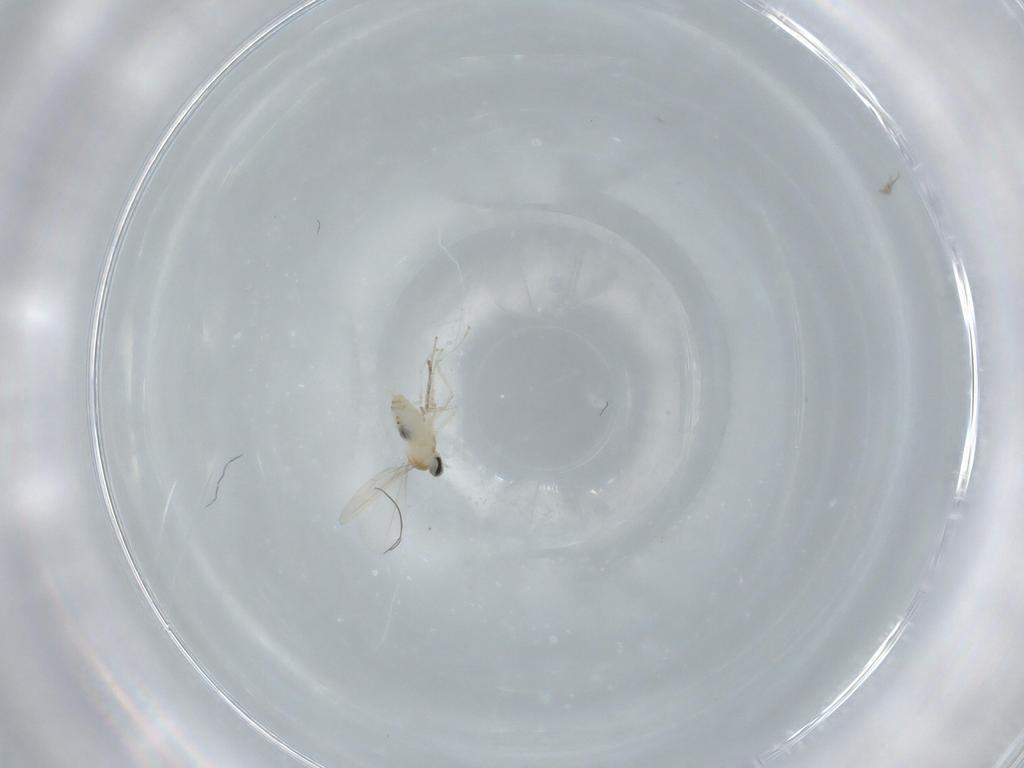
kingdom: Animalia
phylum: Arthropoda
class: Insecta
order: Diptera
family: Cecidomyiidae
